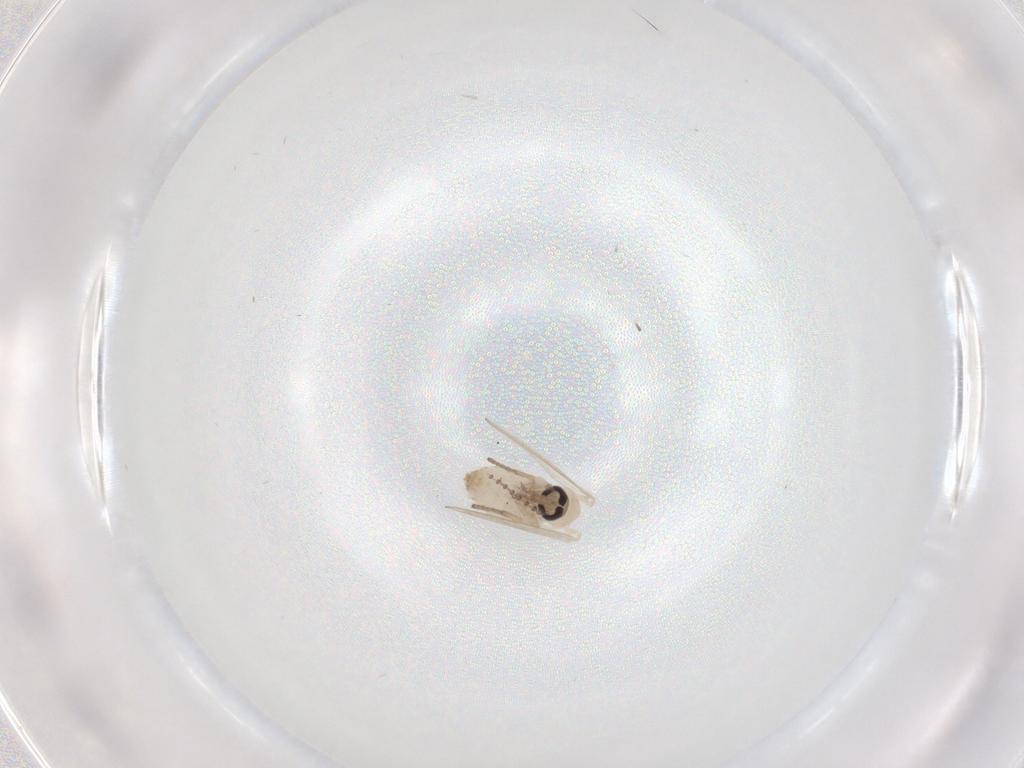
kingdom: Animalia
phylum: Arthropoda
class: Insecta
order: Diptera
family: Psychodidae
